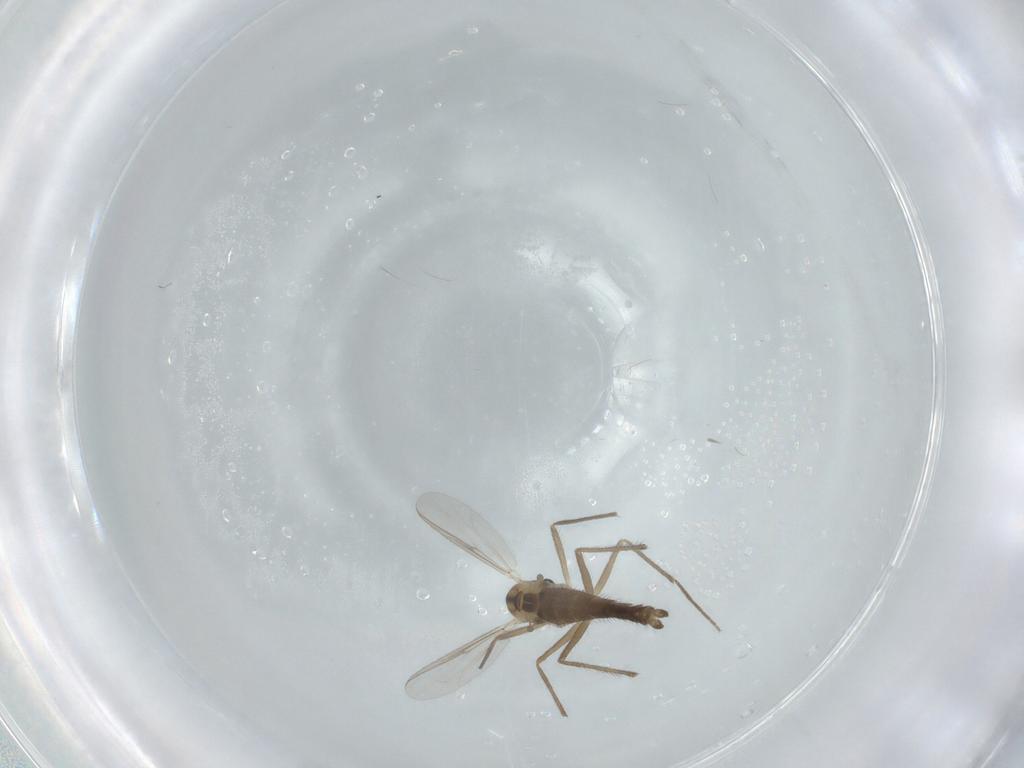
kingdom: Animalia
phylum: Arthropoda
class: Insecta
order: Diptera
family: Chironomidae
